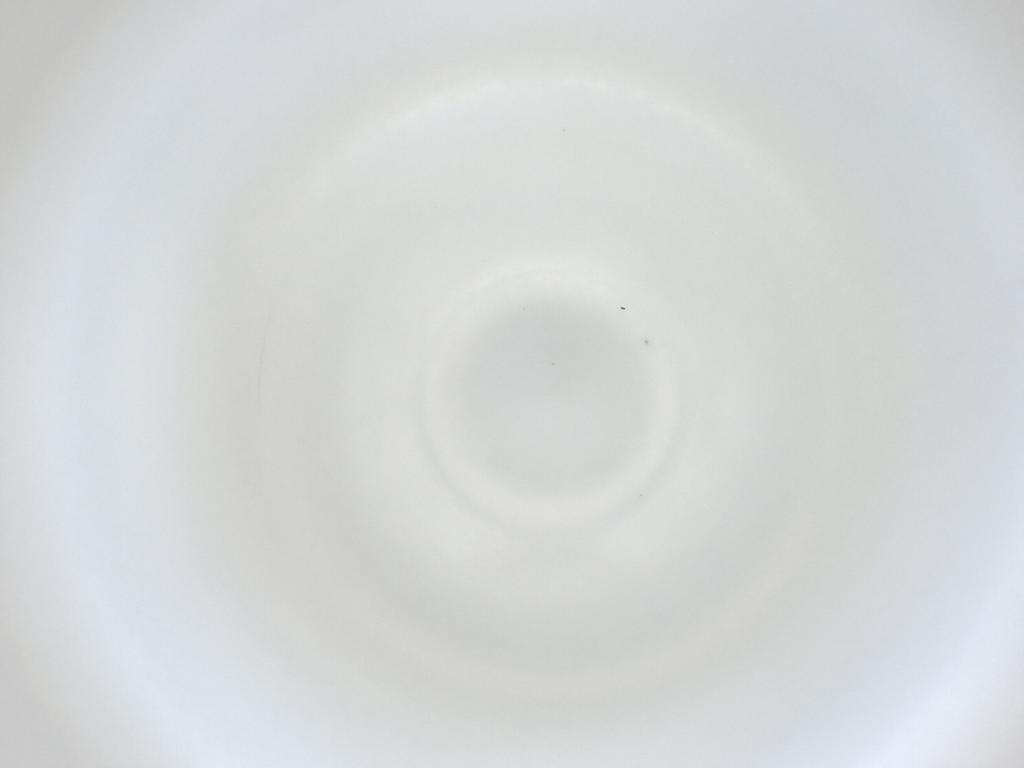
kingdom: Animalia
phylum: Arthropoda
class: Insecta
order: Diptera
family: Cecidomyiidae
